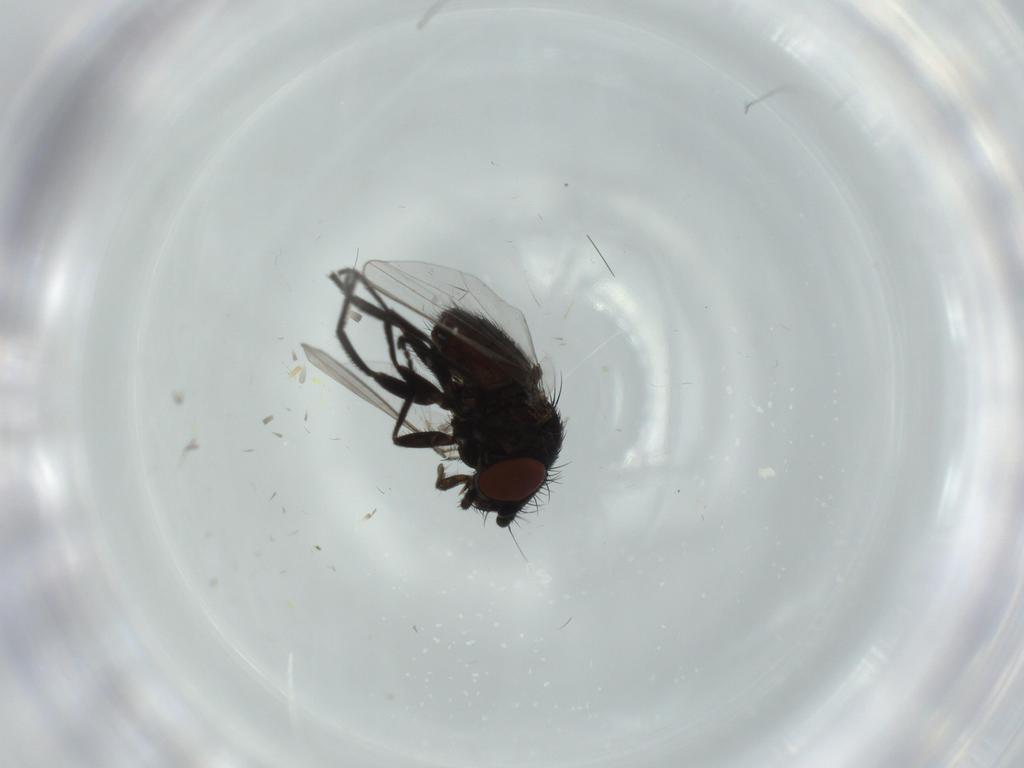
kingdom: Animalia
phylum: Arthropoda
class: Insecta
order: Diptera
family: Milichiidae
